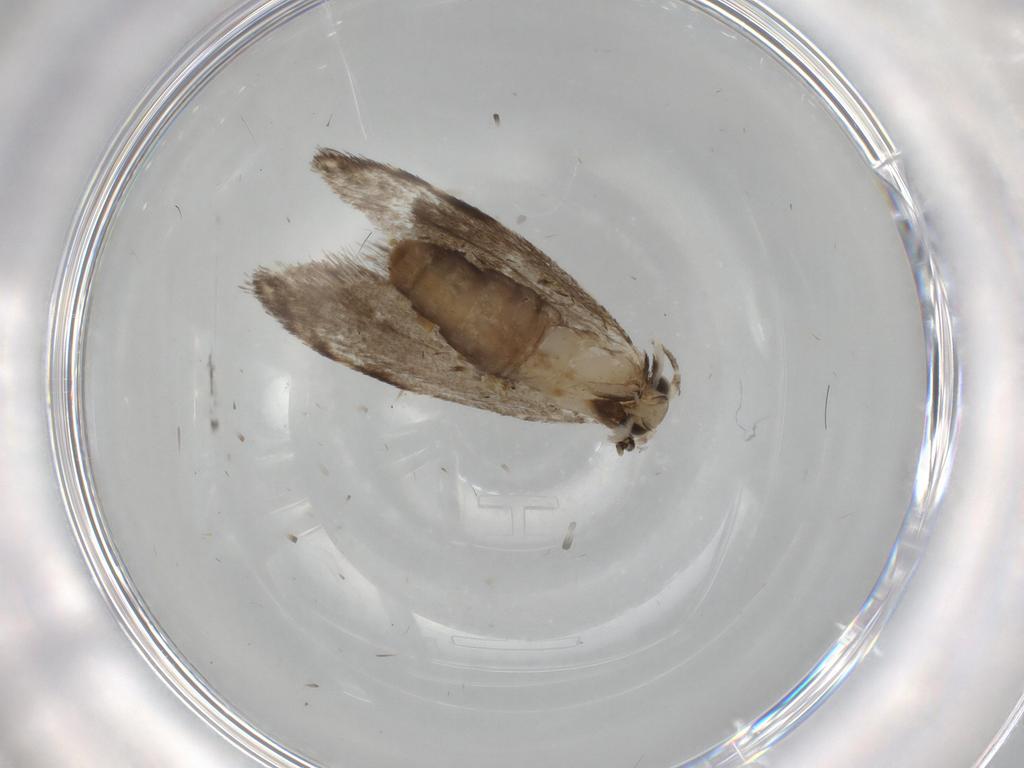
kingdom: Animalia
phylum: Arthropoda
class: Insecta
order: Lepidoptera
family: Tineidae
